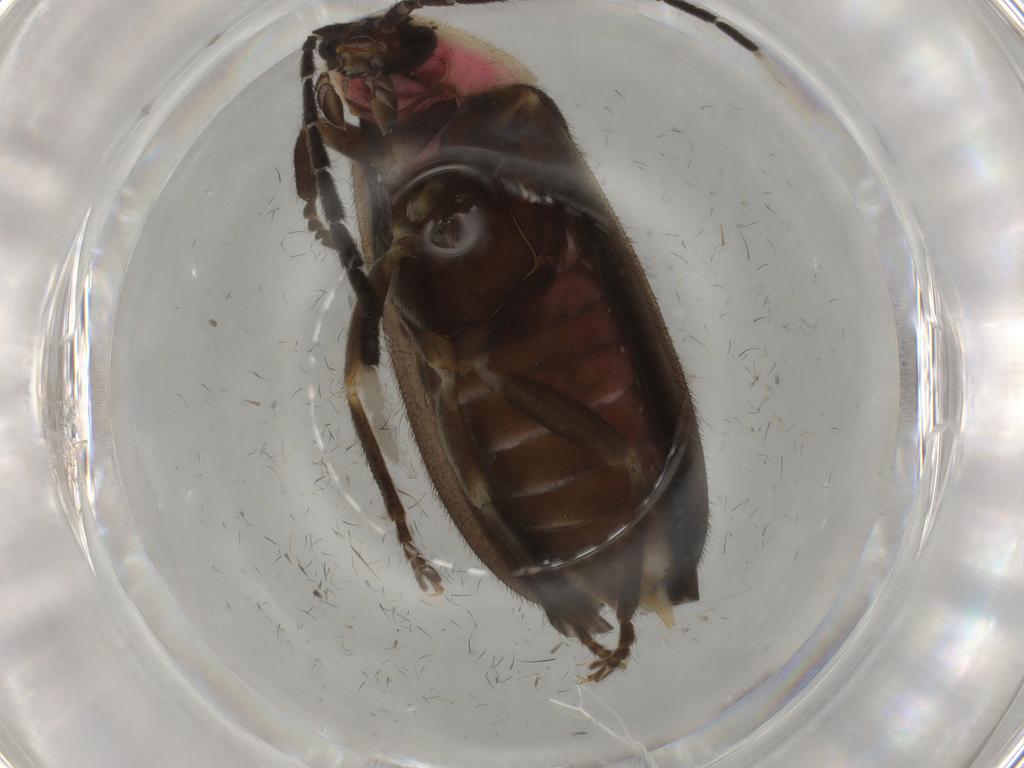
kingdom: Animalia
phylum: Arthropoda
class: Insecta
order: Coleoptera
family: Lampyridae
